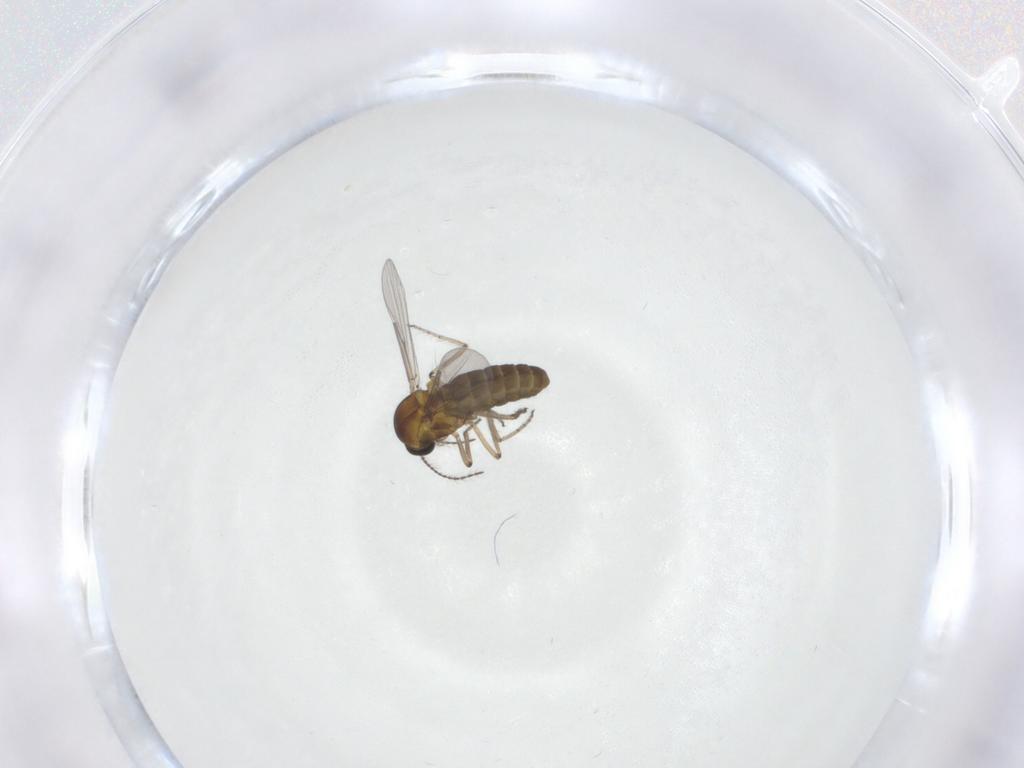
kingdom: Animalia
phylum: Arthropoda
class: Insecta
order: Diptera
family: Ceratopogonidae
